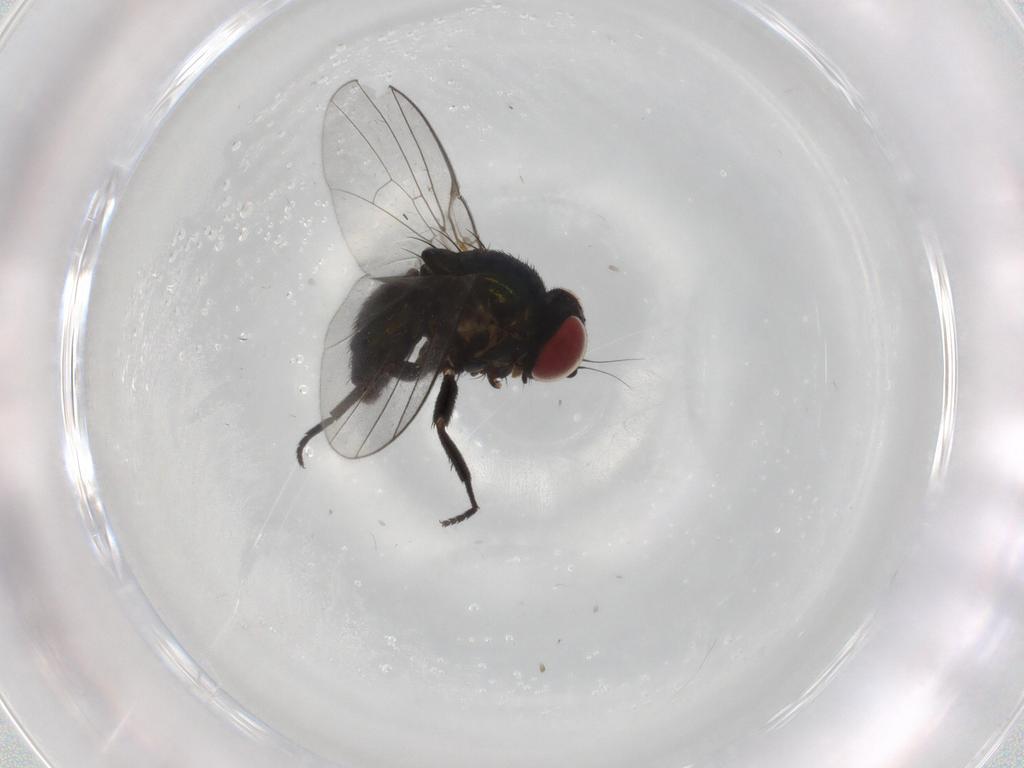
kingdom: Animalia
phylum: Arthropoda
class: Insecta
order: Diptera
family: Agromyzidae
